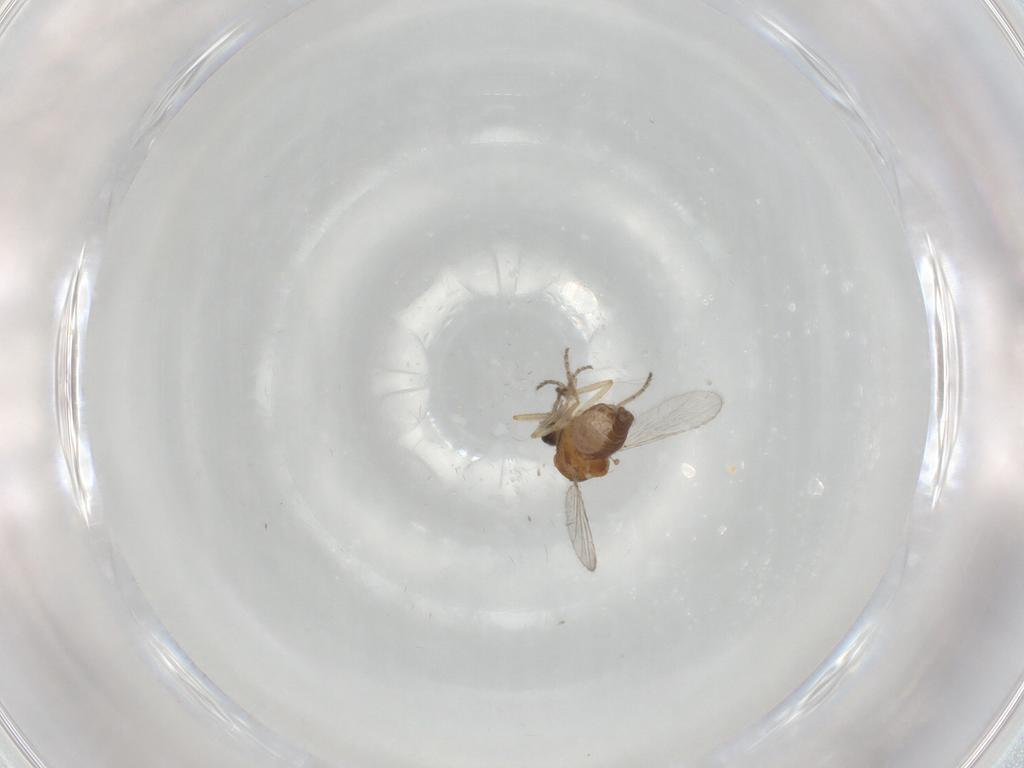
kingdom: Animalia
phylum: Arthropoda
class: Insecta
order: Diptera
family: Ceratopogonidae
